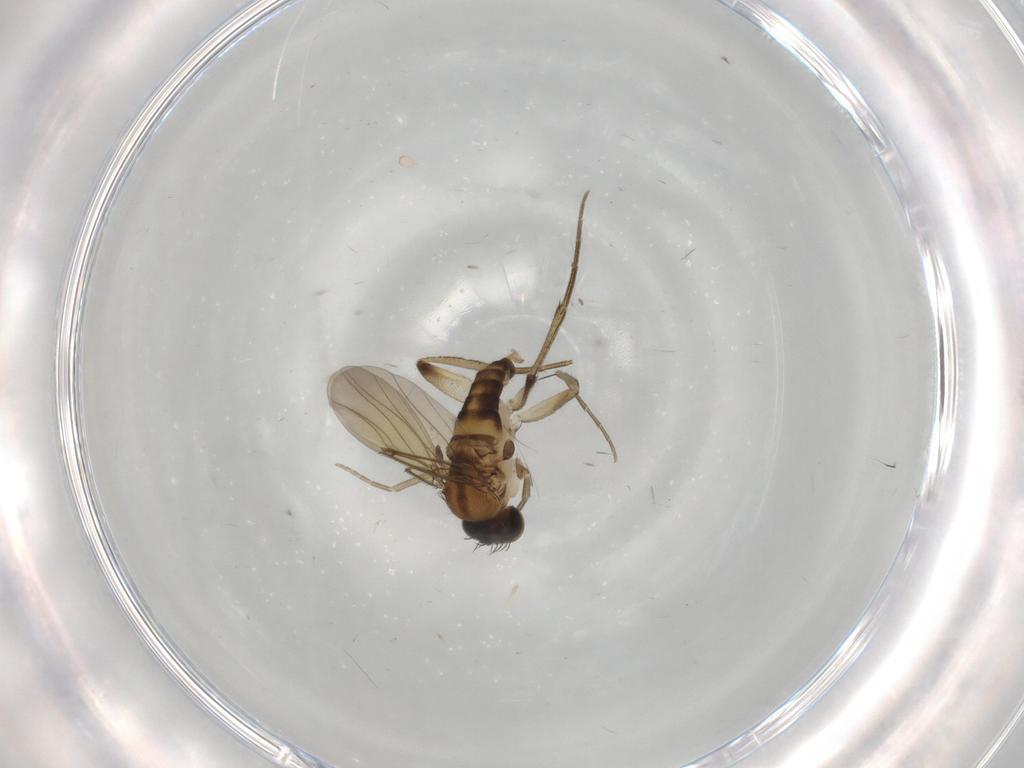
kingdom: Animalia
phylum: Arthropoda
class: Insecta
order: Diptera
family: Phoridae
